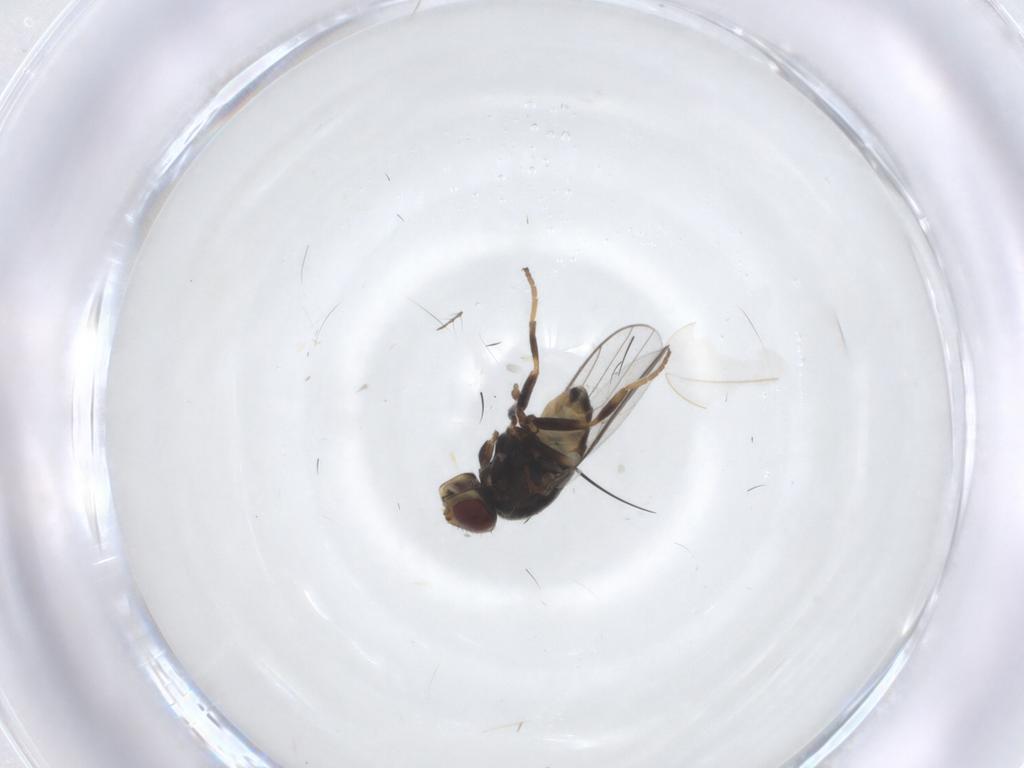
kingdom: Animalia
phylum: Arthropoda
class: Insecta
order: Diptera
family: Chloropidae
